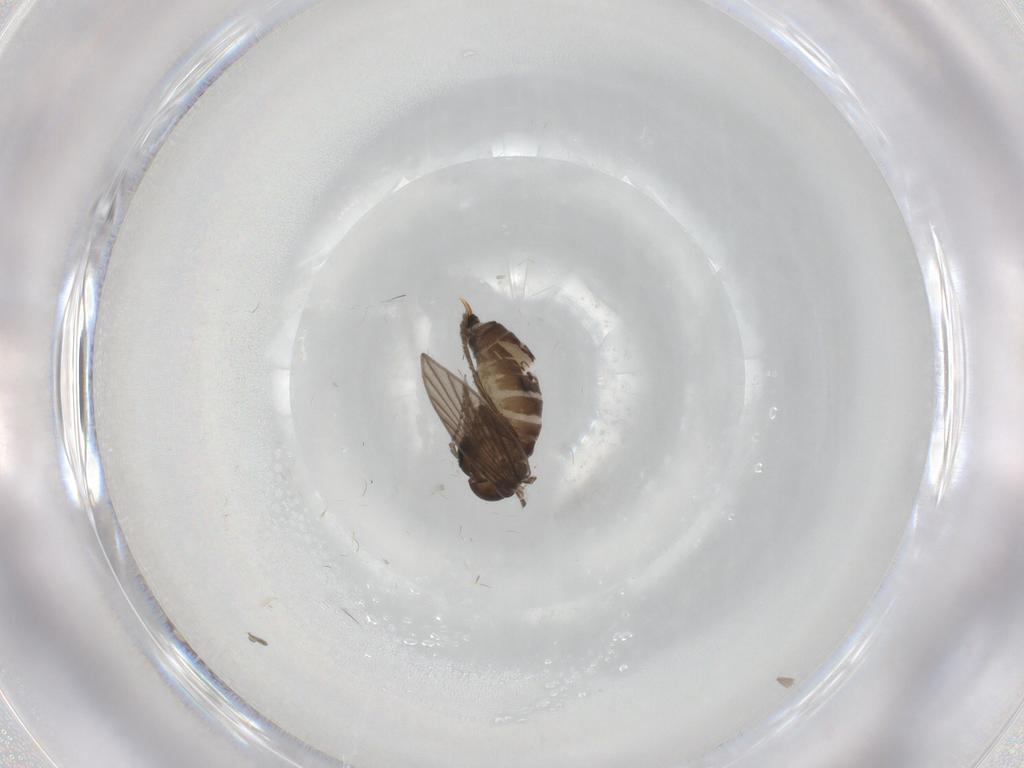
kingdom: Animalia
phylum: Arthropoda
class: Insecta
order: Diptera
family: Psychodidae
